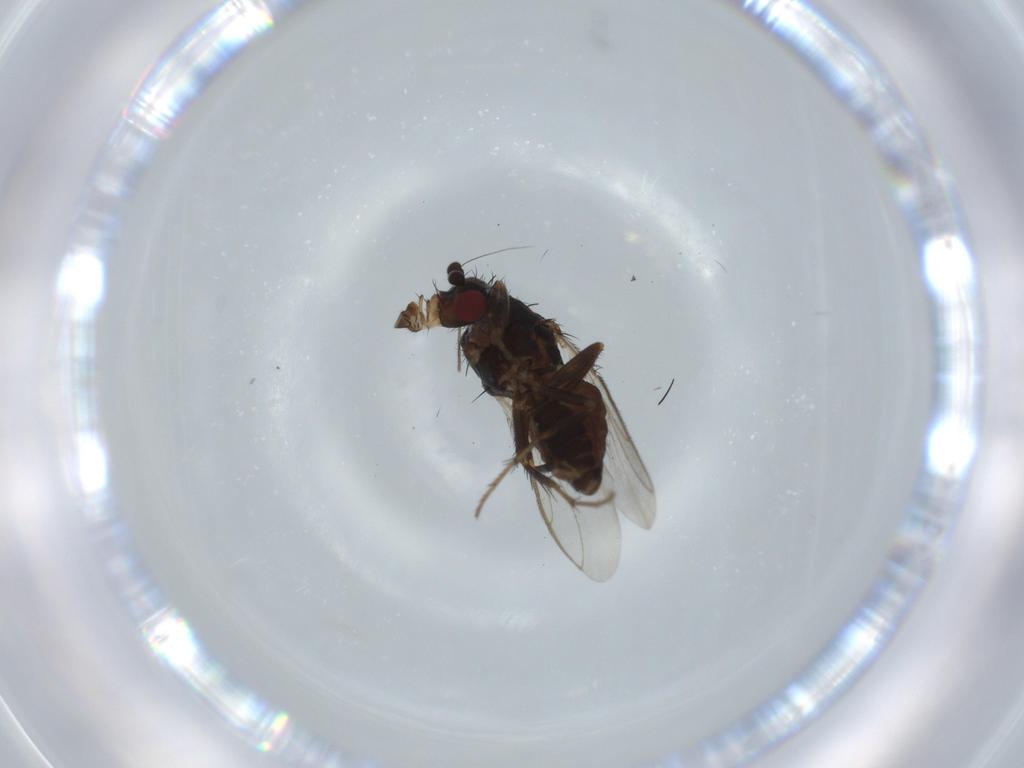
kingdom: Animalia
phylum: Arthropoda
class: Insecta
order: Diptera
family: Sphaeroceridae
